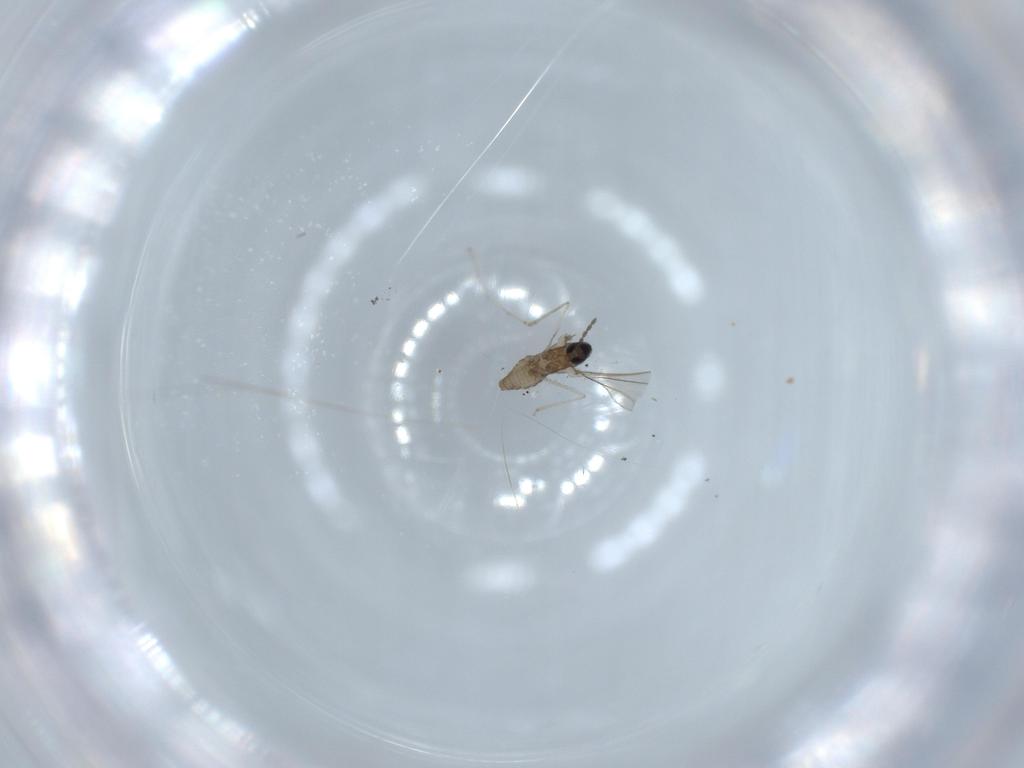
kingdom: Animalia
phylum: Arthropoda
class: Insecta
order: Diptera
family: Cecidomyiidae
